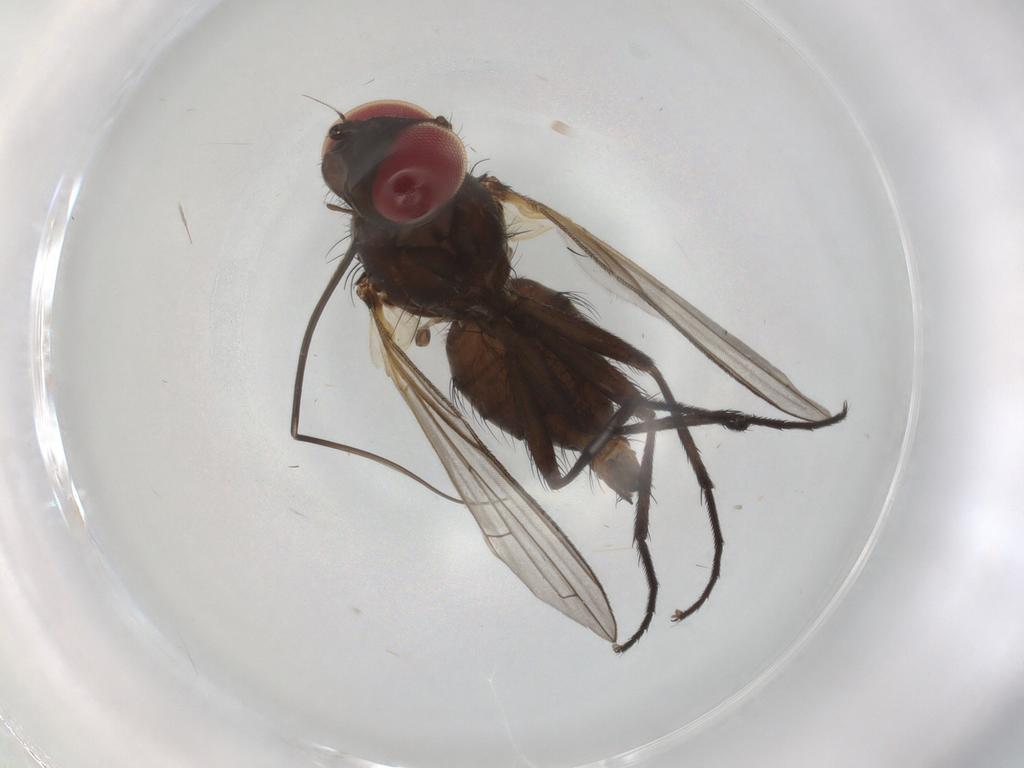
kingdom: Animalia
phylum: Arthropoda
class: Insecta
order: Diptera
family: Tachinidae
